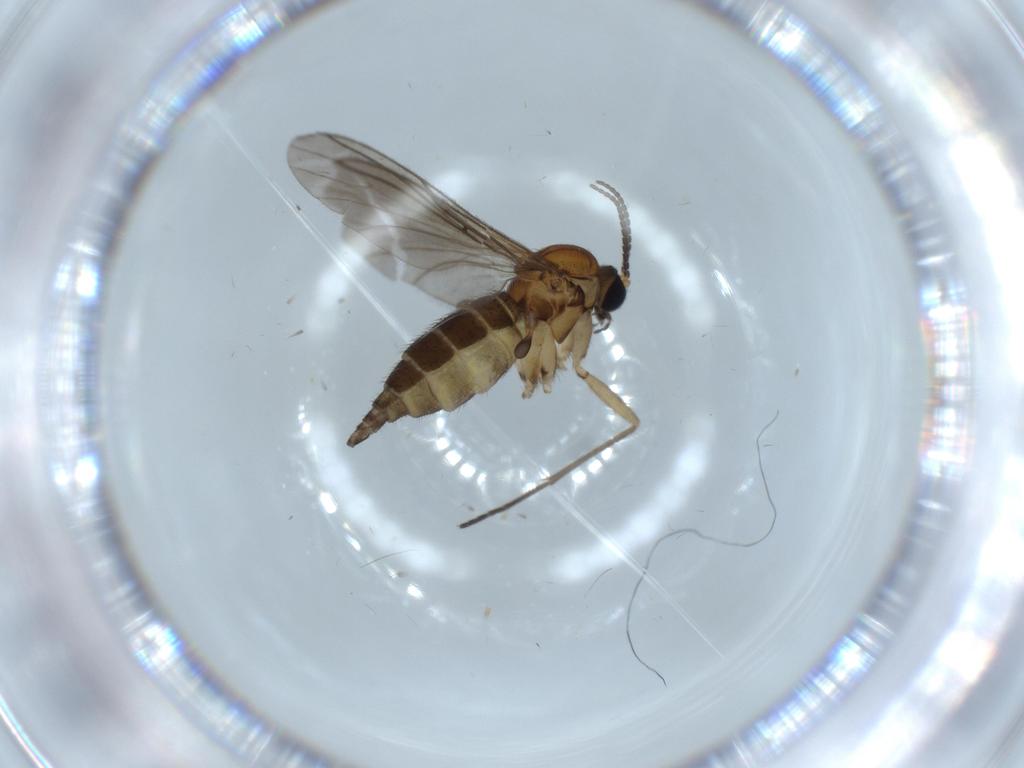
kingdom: Animalia
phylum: Arthropoda
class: Insecta
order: Diptera
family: Sciaridae
